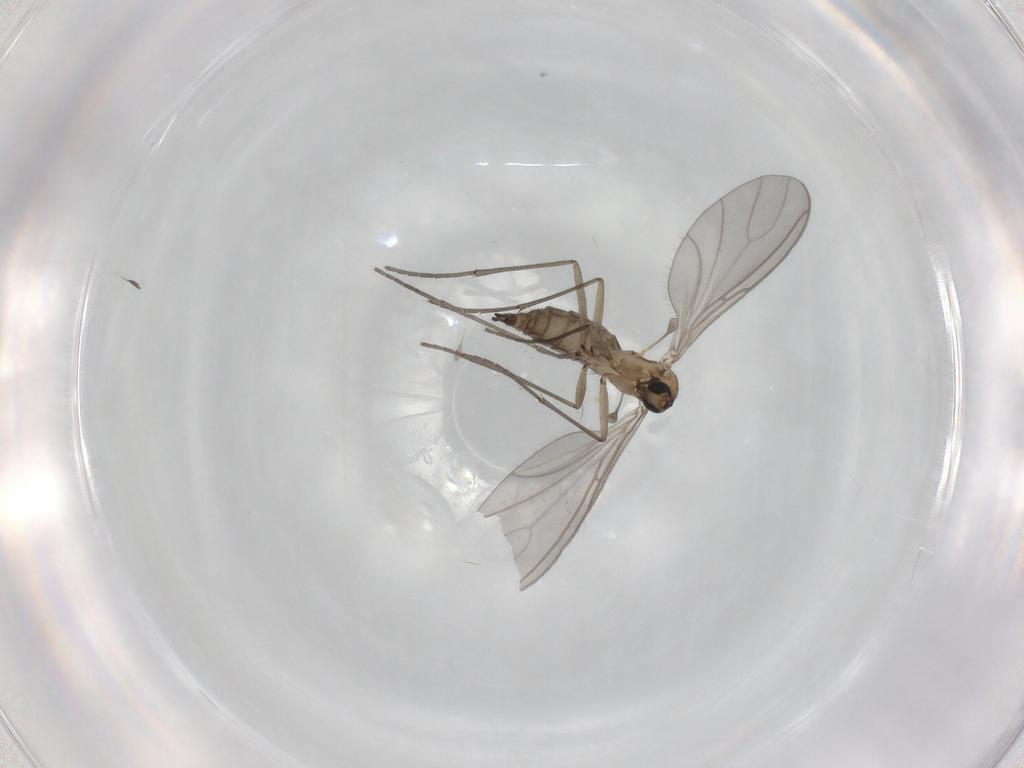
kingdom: Animalia
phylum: Arthropoda
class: Insecta
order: Diptera
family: Sciaridae
